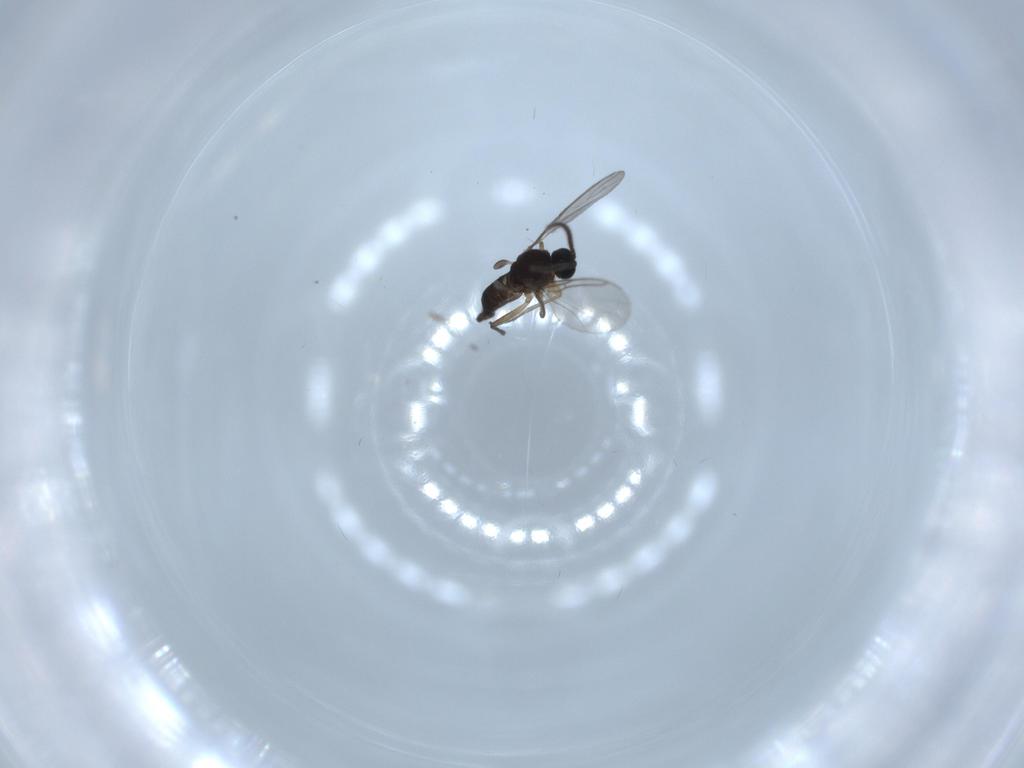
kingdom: Animalia
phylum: Arthropoda
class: Insecta
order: Diptera
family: Sciaridae
